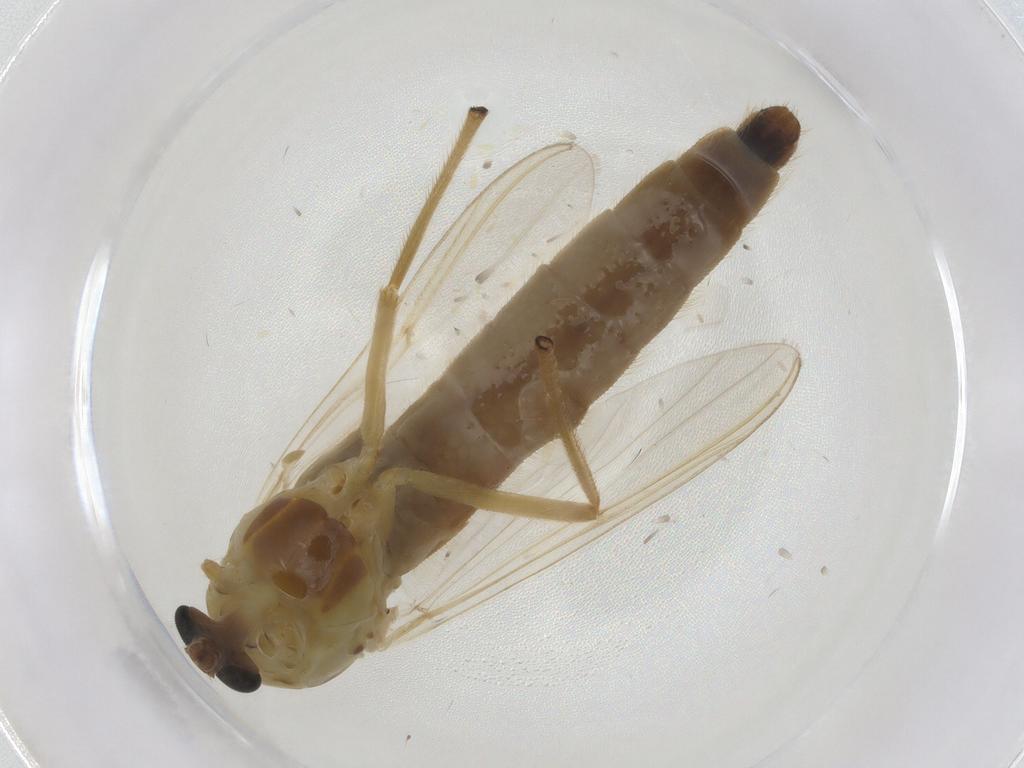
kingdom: Animalia
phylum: Arthropoda
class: Insecta
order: Diptera
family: Chironomidae
